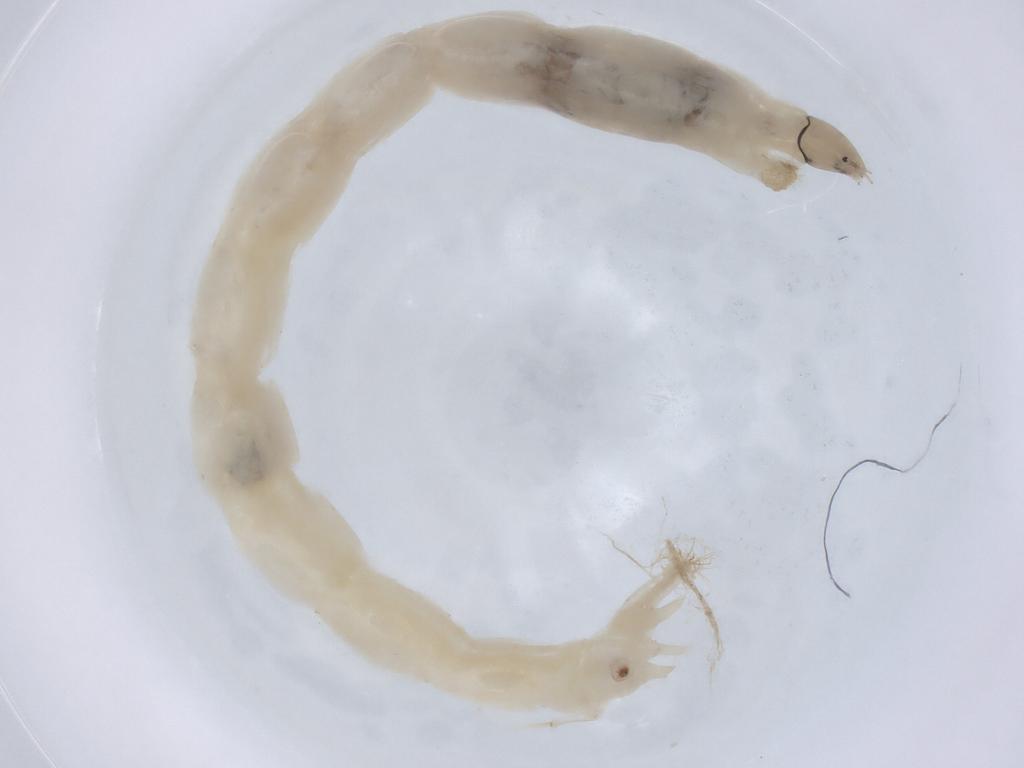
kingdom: Animalia
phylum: Arthropoda
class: Insecta
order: Diptera
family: Chironomidae
